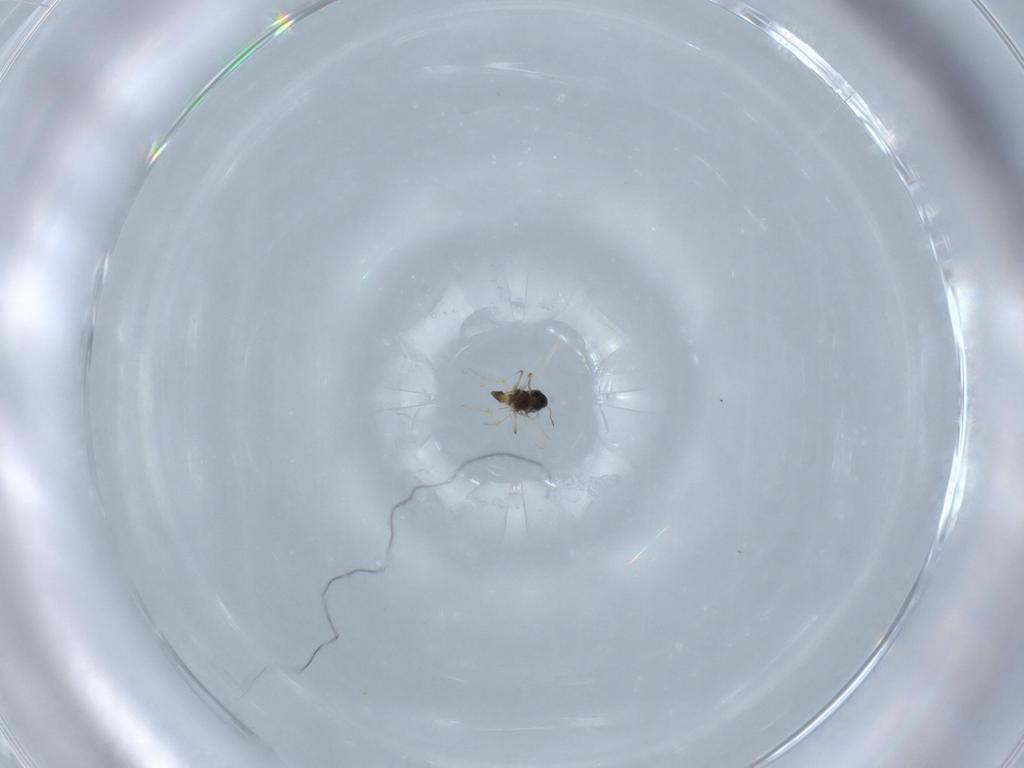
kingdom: Animalia
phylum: Arthropoda
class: Insecta
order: Diptera
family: Chironomidae
